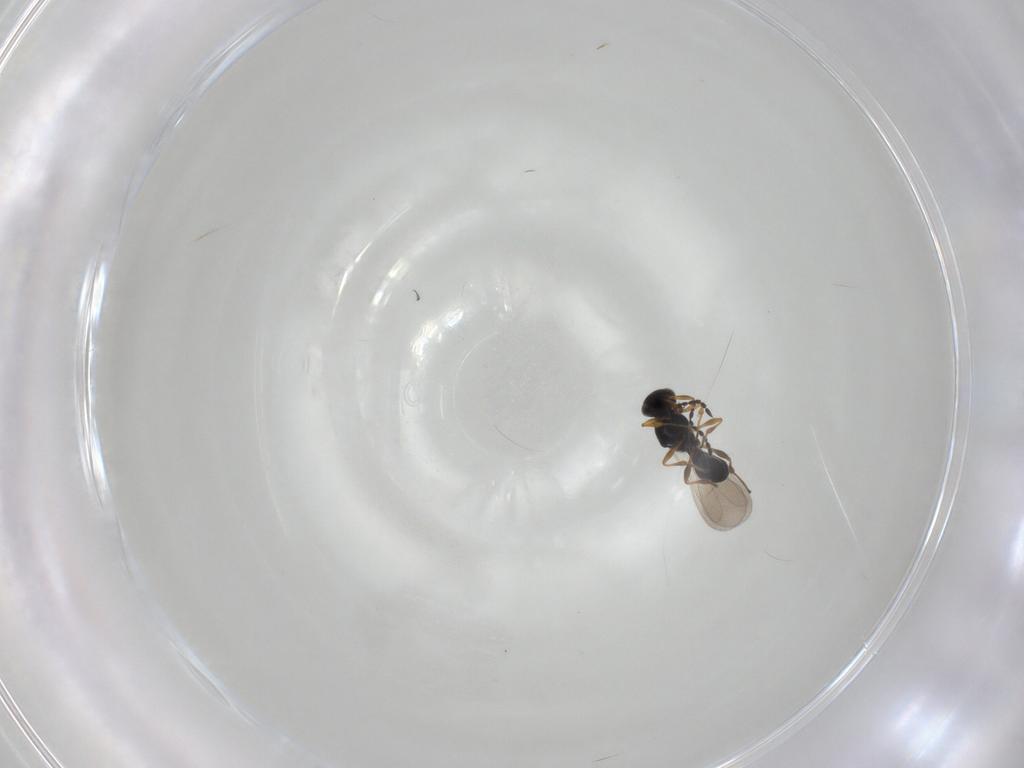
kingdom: Animalia
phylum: Arthropoda
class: Insecta
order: Hymenoptera
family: Platygastridae
